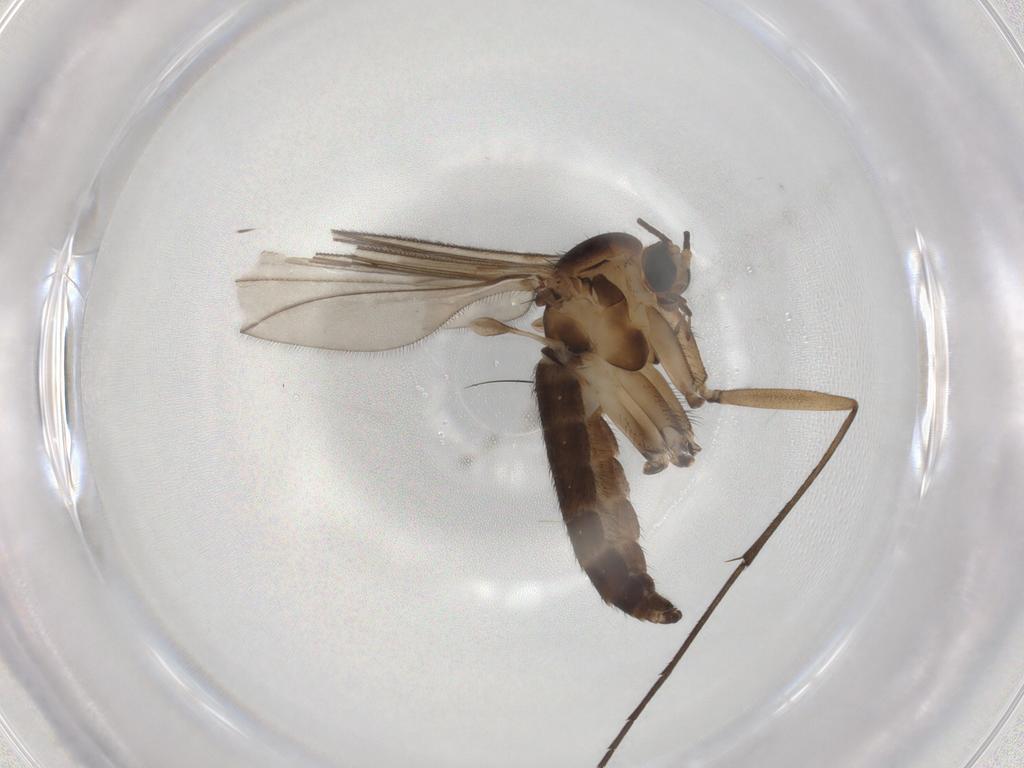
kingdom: Animalia
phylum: Arthropoda
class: Insecta
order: Diptera
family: Sciaridae
